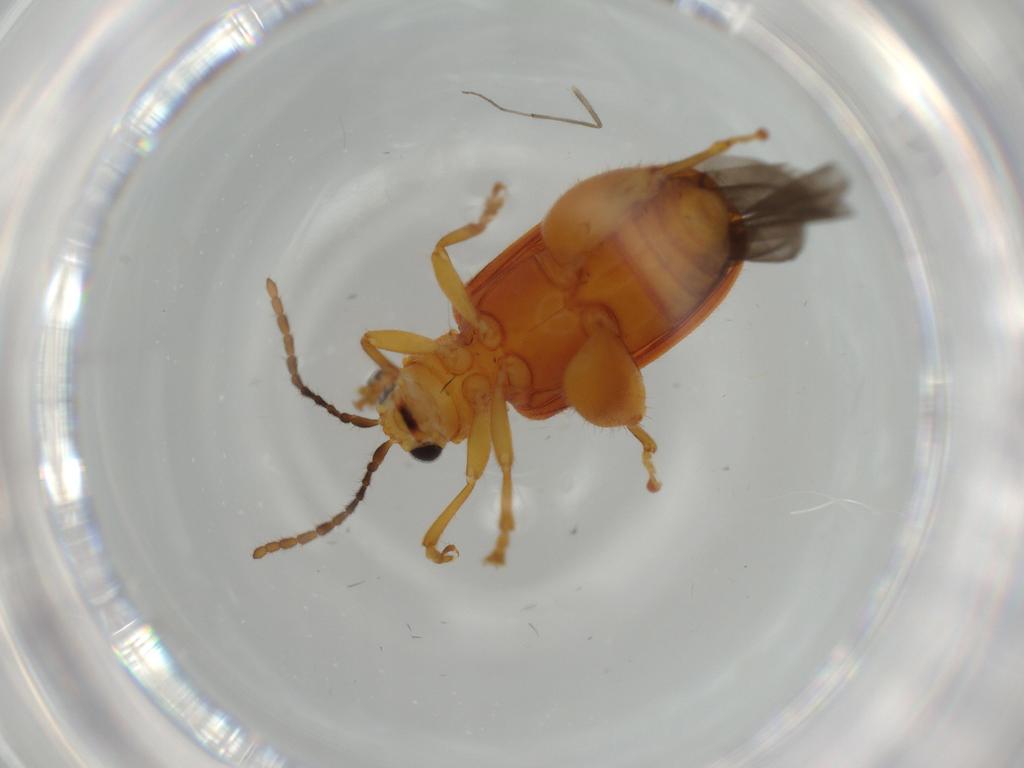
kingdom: Animalia
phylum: Arthropoda
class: Insecta
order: Coleoptera
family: Chrysomelidae
